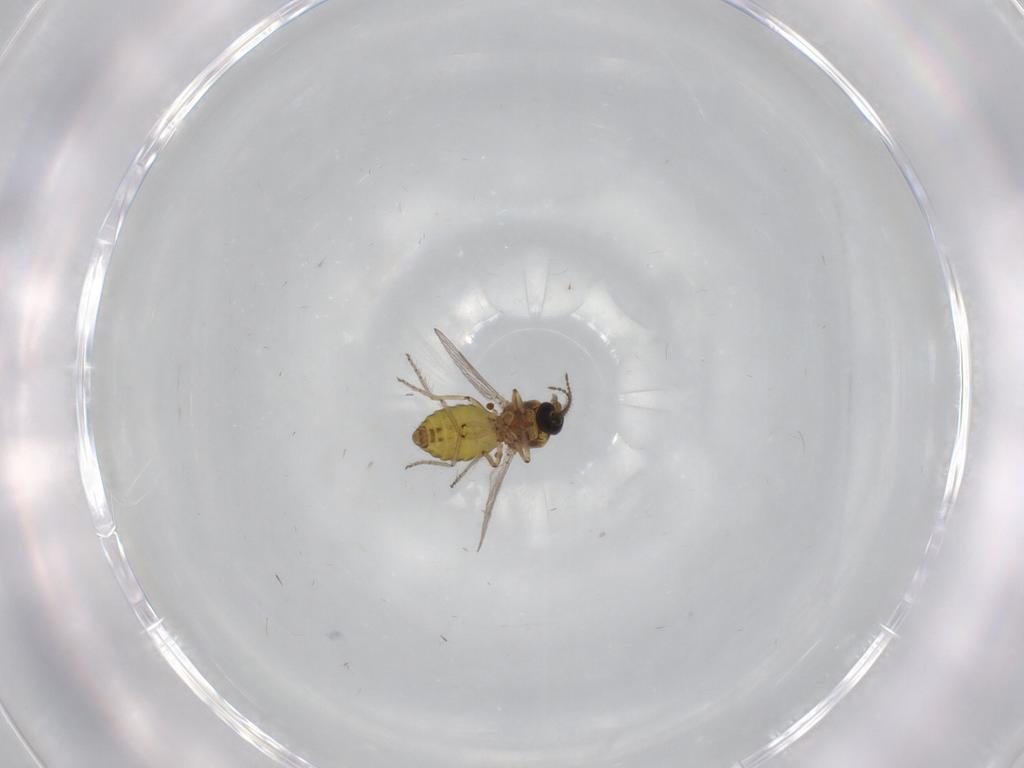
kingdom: Animalia
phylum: Arthropoda
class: Insecta
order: Diptera
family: Ceratopogonidae
